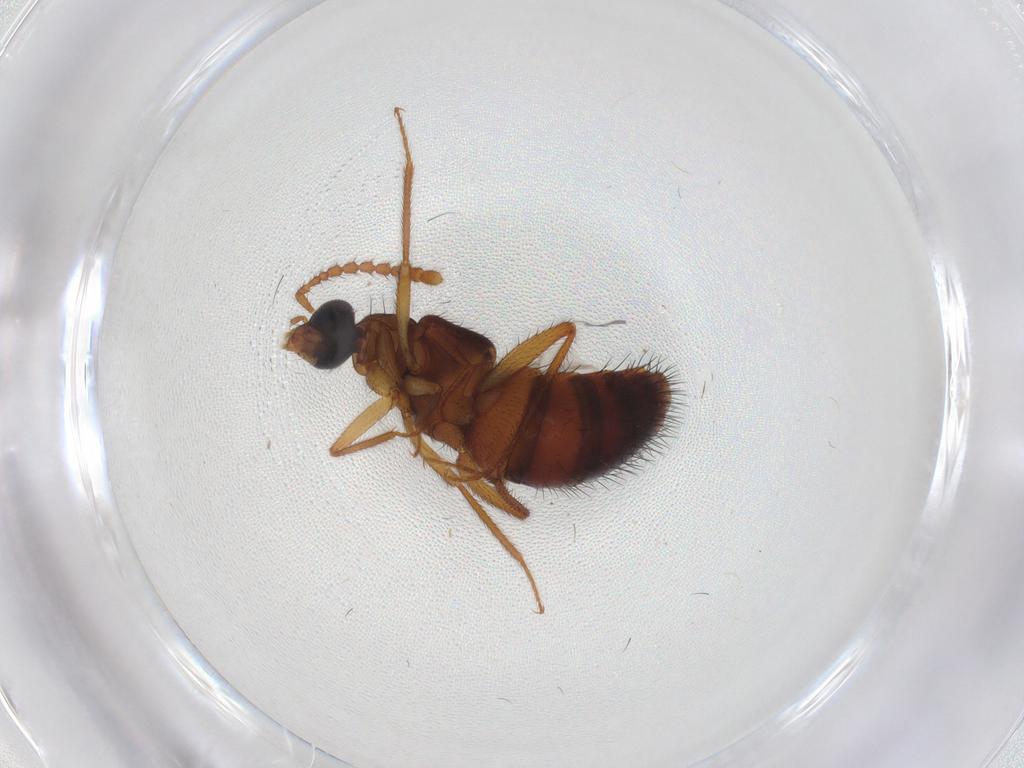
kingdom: Animalia
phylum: Arthropoda
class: Insecta
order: Coleoptera
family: Staphylinidae
